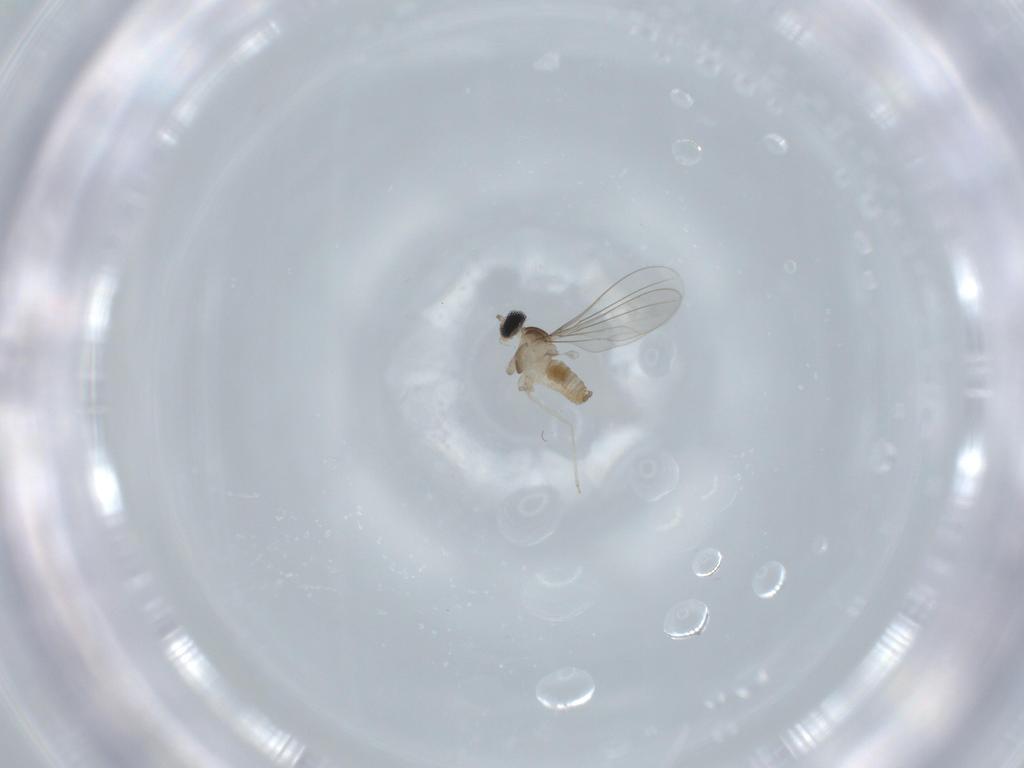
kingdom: Animalia
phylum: Arthropoda
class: Insecta
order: Diptera
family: Cecidomyiidae
